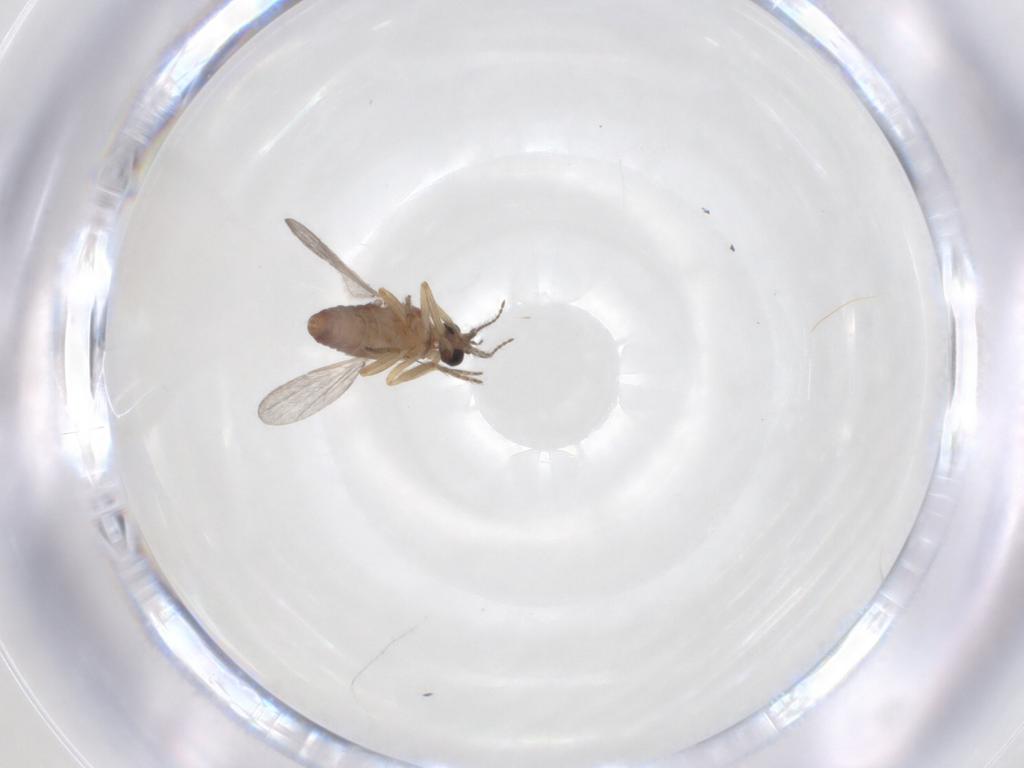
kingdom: Animalia
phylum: Arthropoda
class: Insecta
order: Diptera
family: Ceratopogonidae
